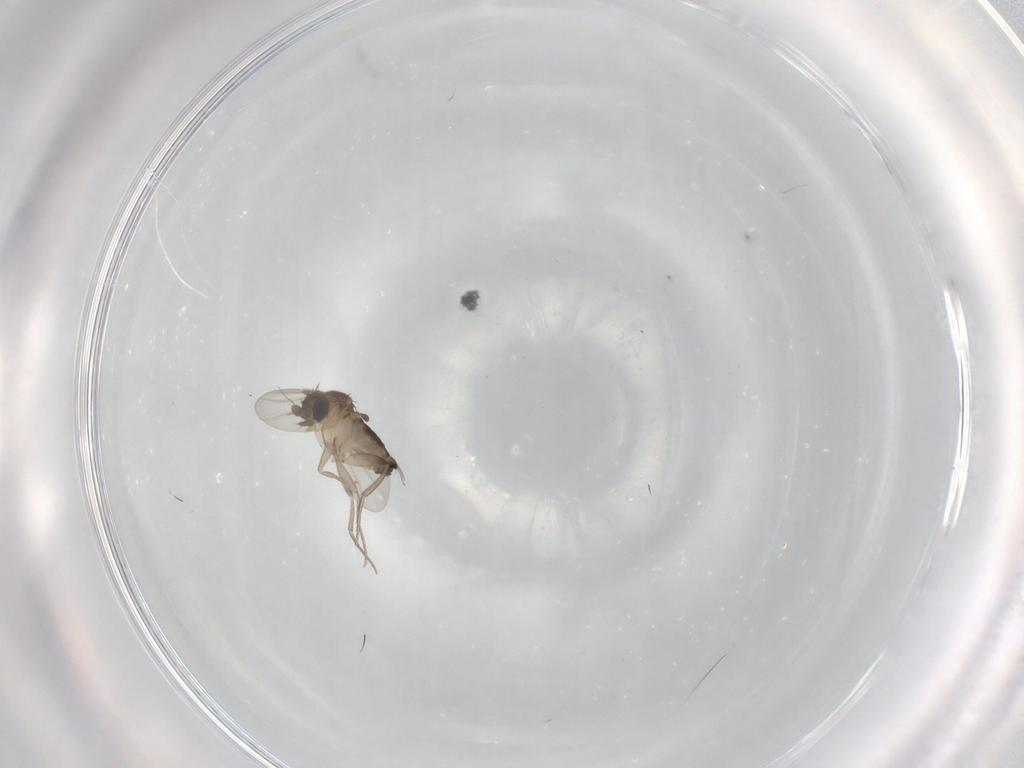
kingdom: Animalia
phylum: Arthropoda
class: Insecta
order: Diptera
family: Phoridae
